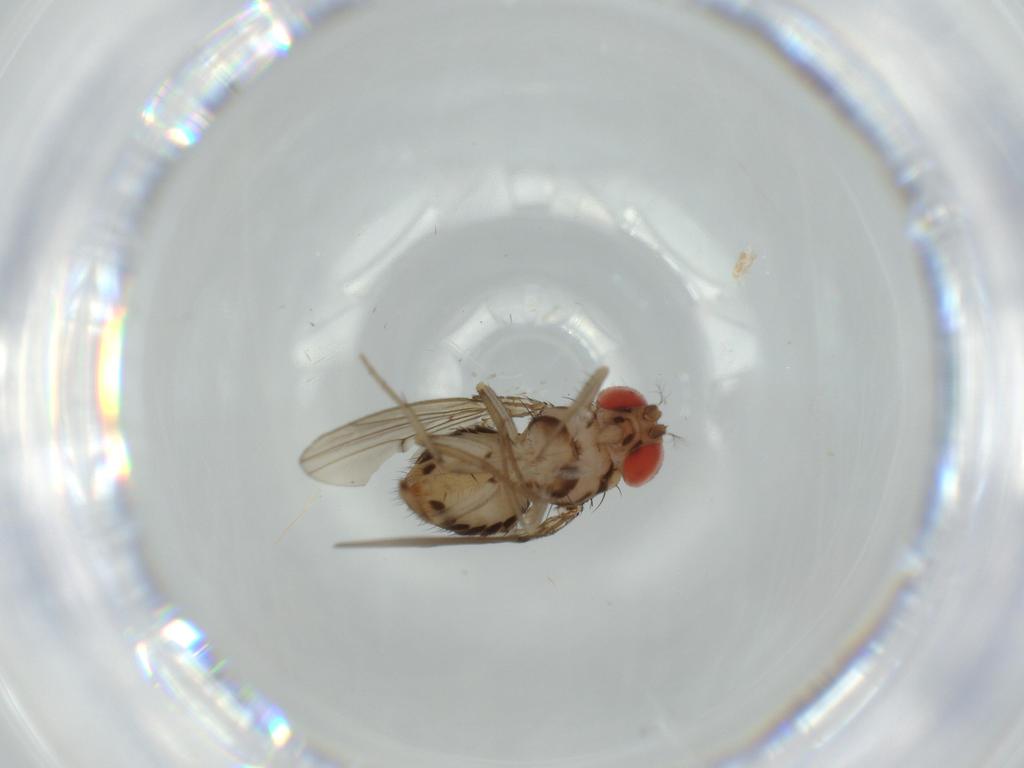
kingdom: Animalia
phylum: Arthropoda
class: Insecta
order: Diptera
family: Drosophilidae
